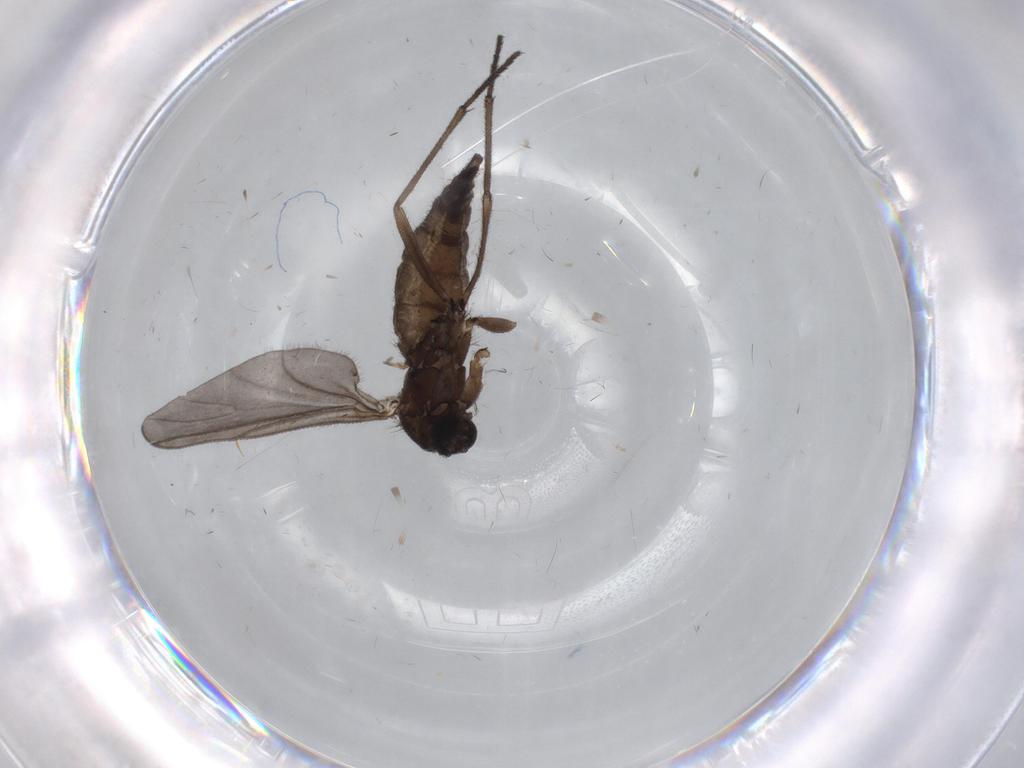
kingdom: Animalia
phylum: Arthropoda
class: Insecta
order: Diptera
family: Sciaridae
